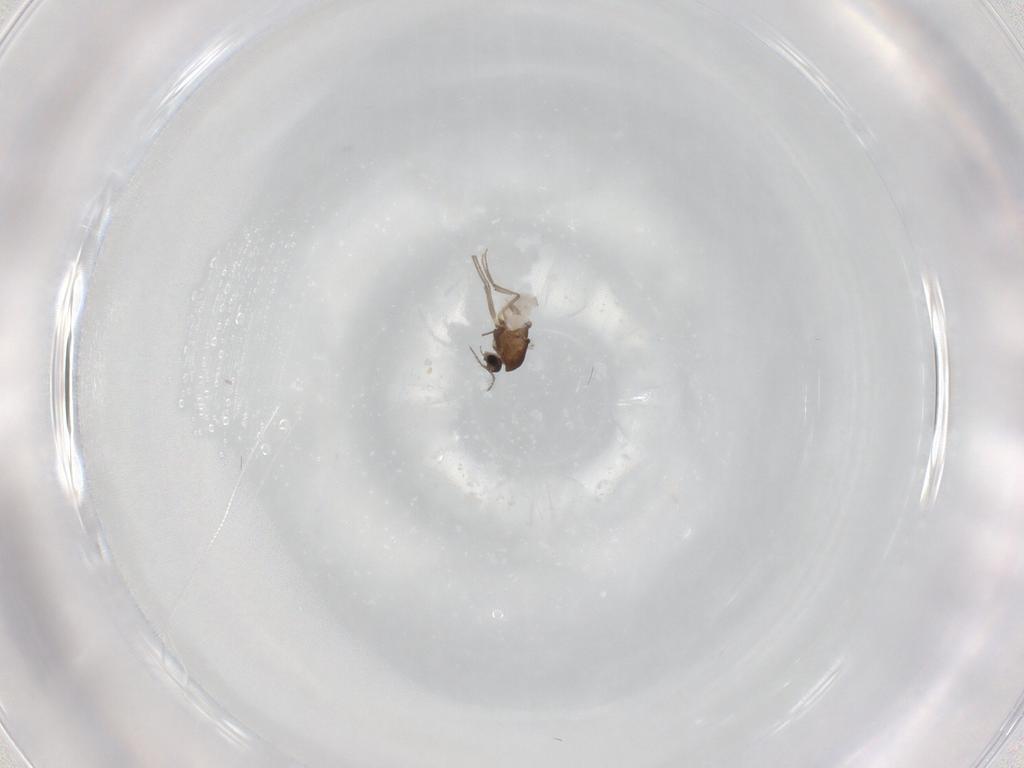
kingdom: Animalia
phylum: Arthropoda
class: Insecta
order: Diptera
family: Chironomidae
